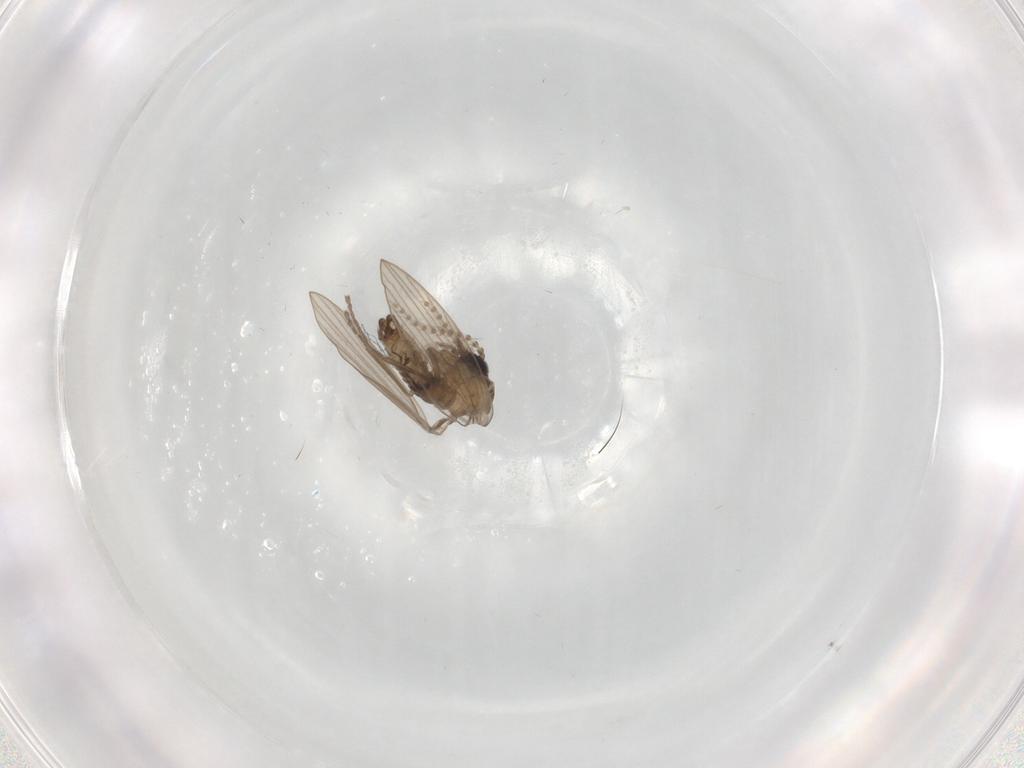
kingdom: Animalia
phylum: Arthropoda
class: Insecta
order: Diptera
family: Psychodidae
